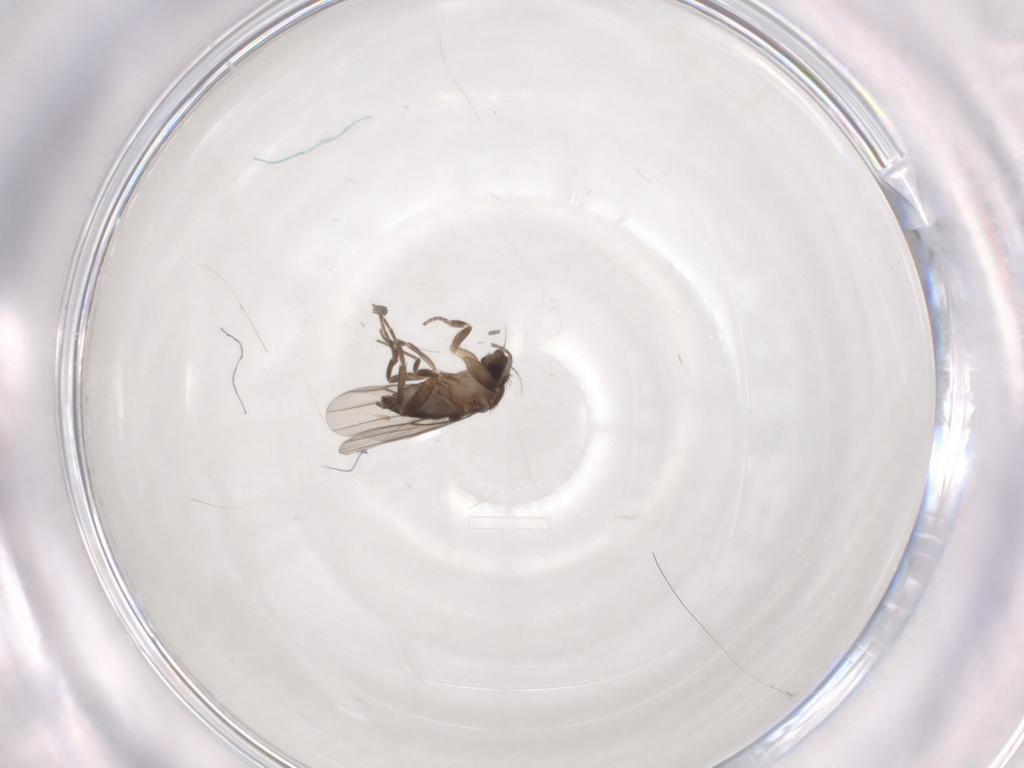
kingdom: Animalia
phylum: Arthropoda
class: Insecta
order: Diptera
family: Phoridae
